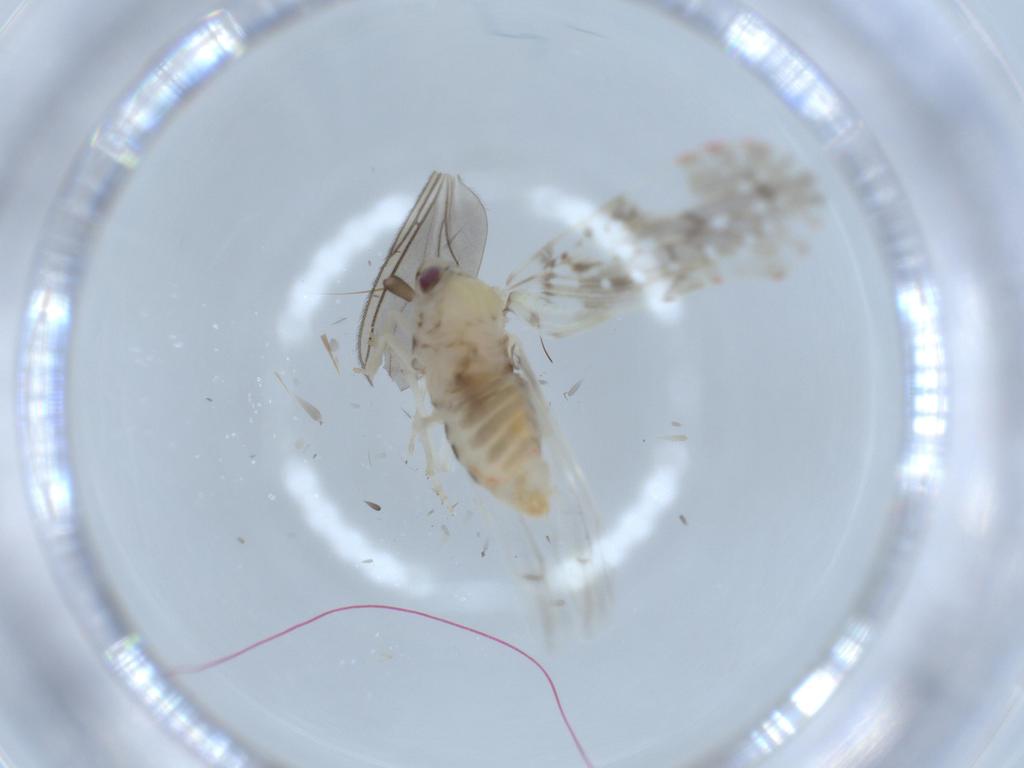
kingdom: Animalia
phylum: Arthropoda
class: Insecta
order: Hemiptera
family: Derbidae
